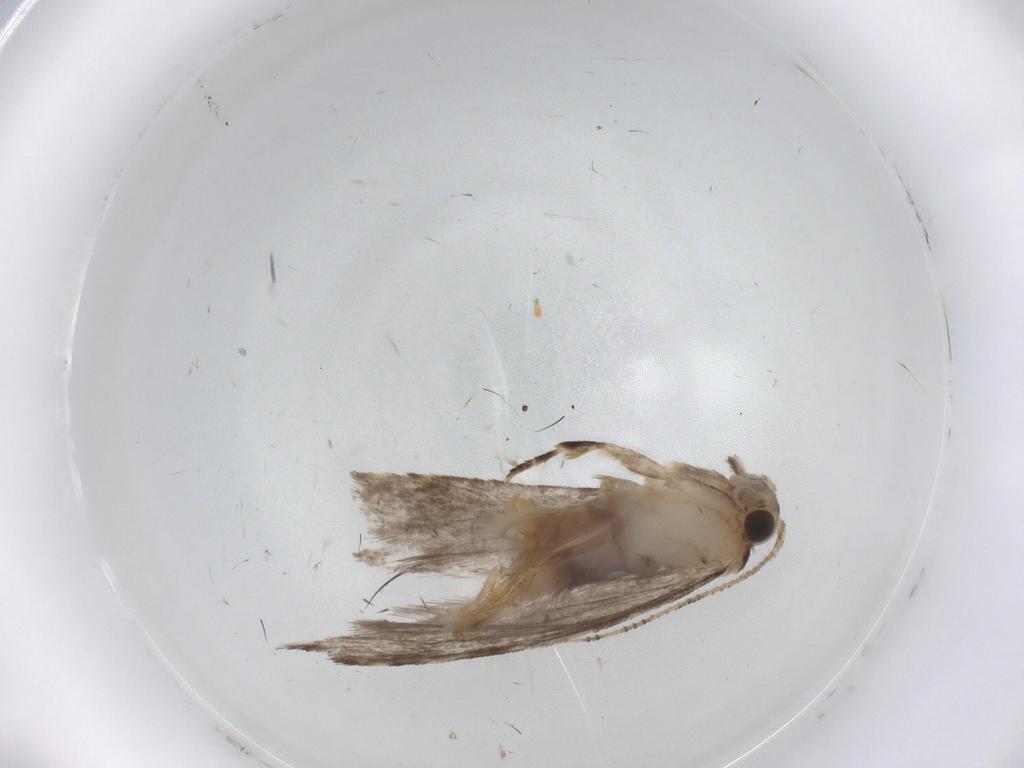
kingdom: Animalia
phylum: Arthropoda
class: Insecta
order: Lepidoptera
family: Tineidae
